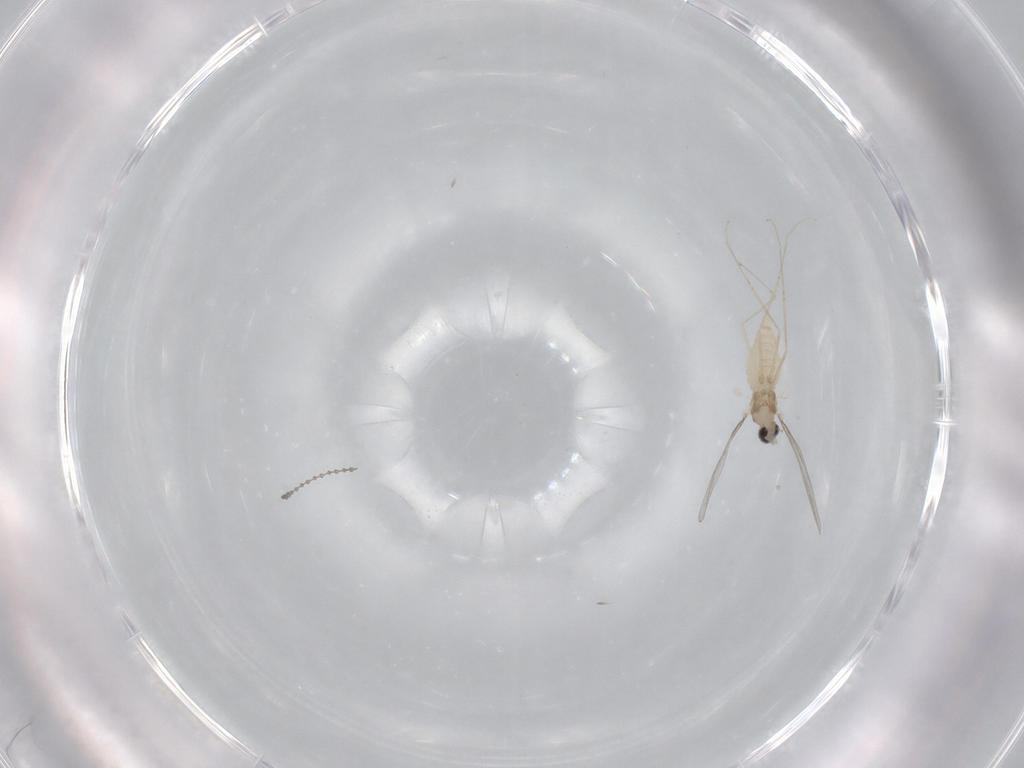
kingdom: Animalia
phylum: Arthropoda
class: Insecta
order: Diptera
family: Cecidomyiidae
